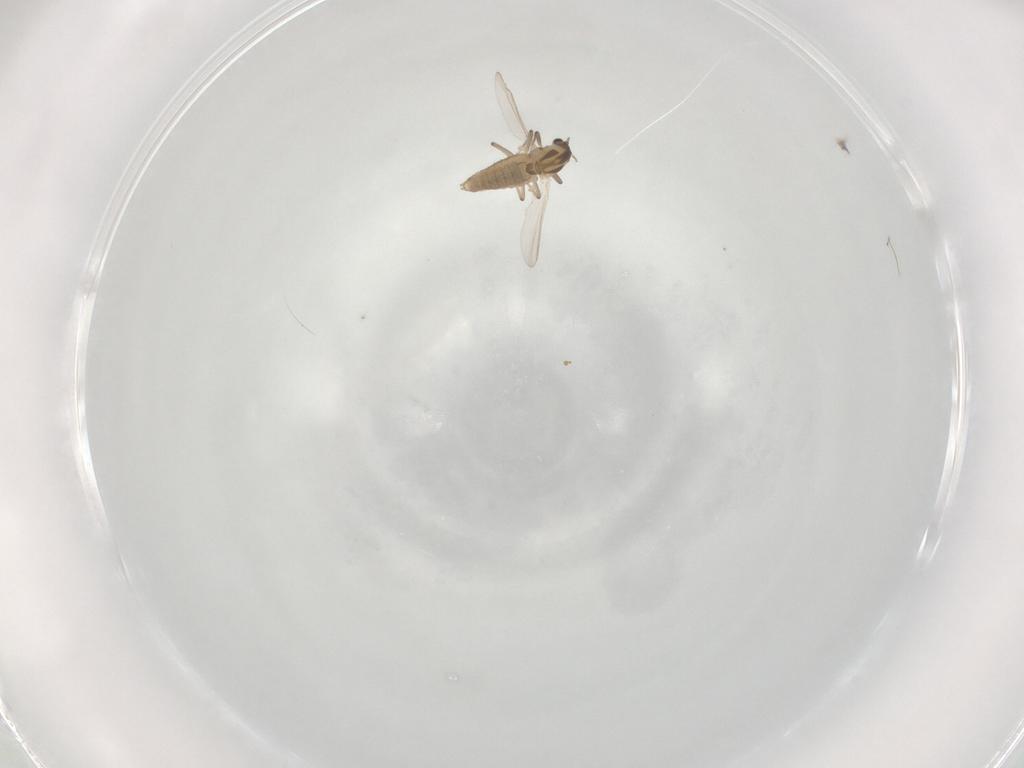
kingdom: Animalia
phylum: Arthropoda
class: Insecta
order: Diptera
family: Chironomidae
